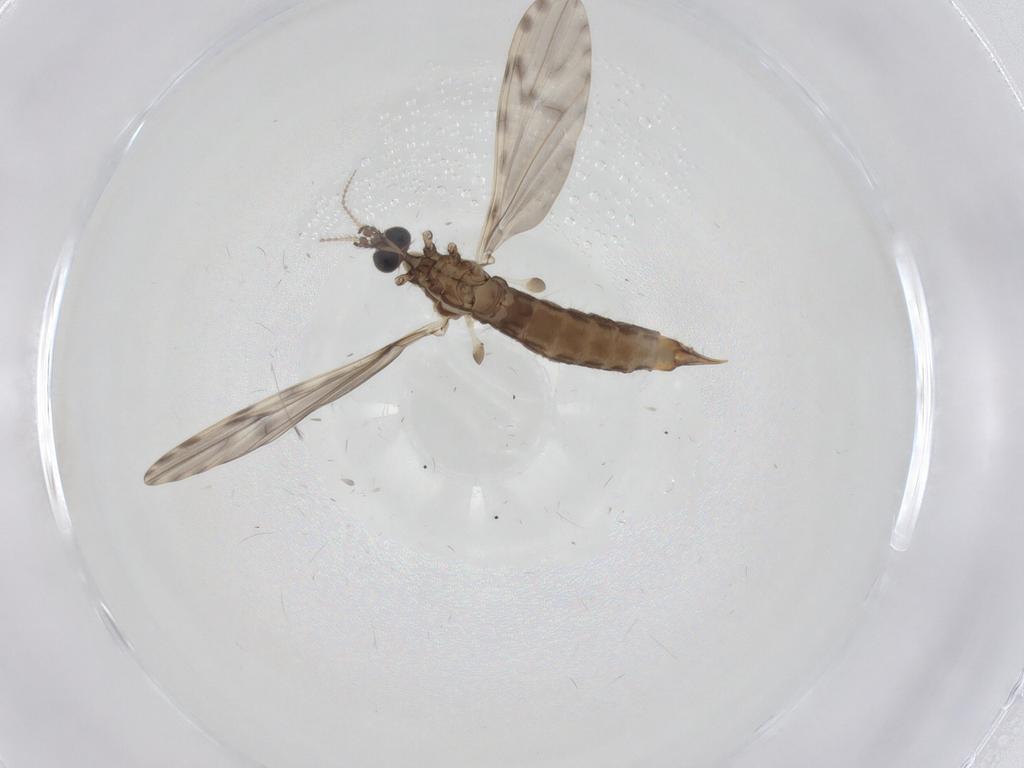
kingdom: Animalia
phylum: Arthropoda
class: Insecta
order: Diptera
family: Limoniidae
